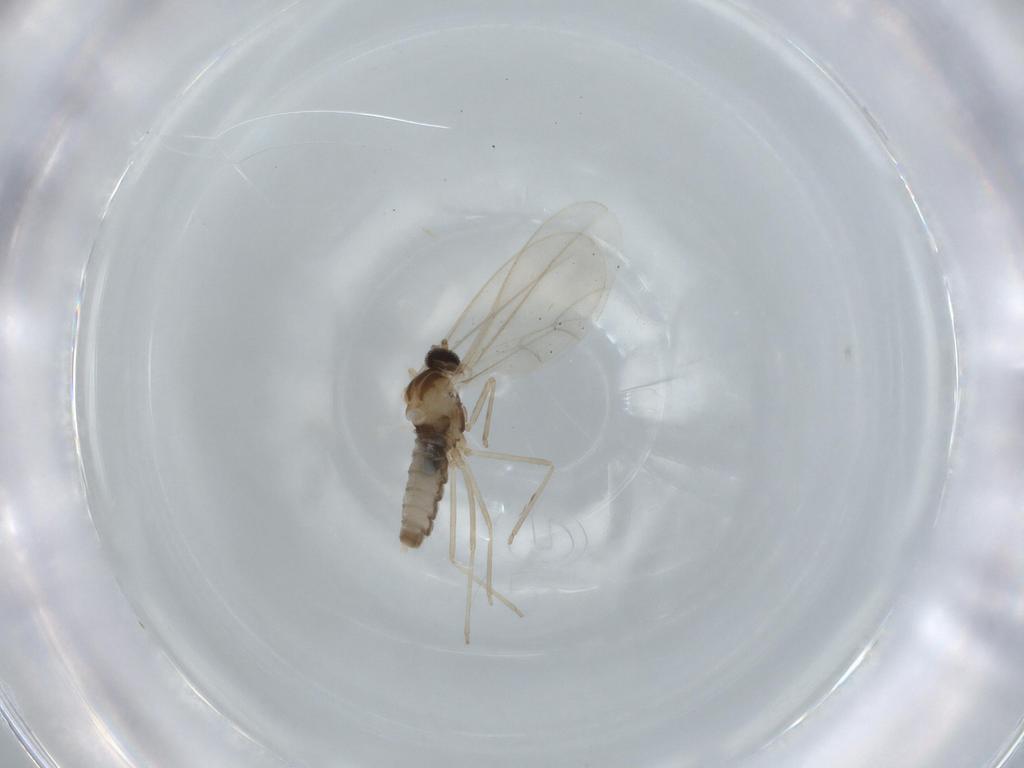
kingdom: Animalia
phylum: Arthropoda
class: Insecta
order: Diptera
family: Cecidomyiidae
